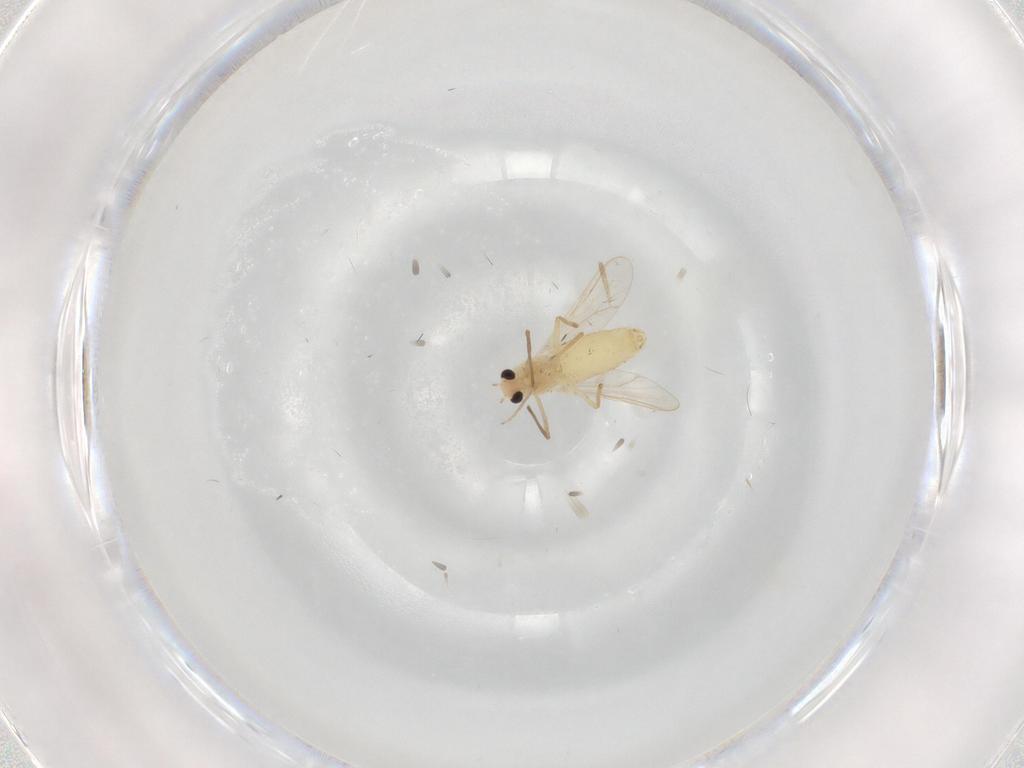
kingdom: Animalia
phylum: Arthropoda
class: Insecta
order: Diptera
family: Chironomidae
